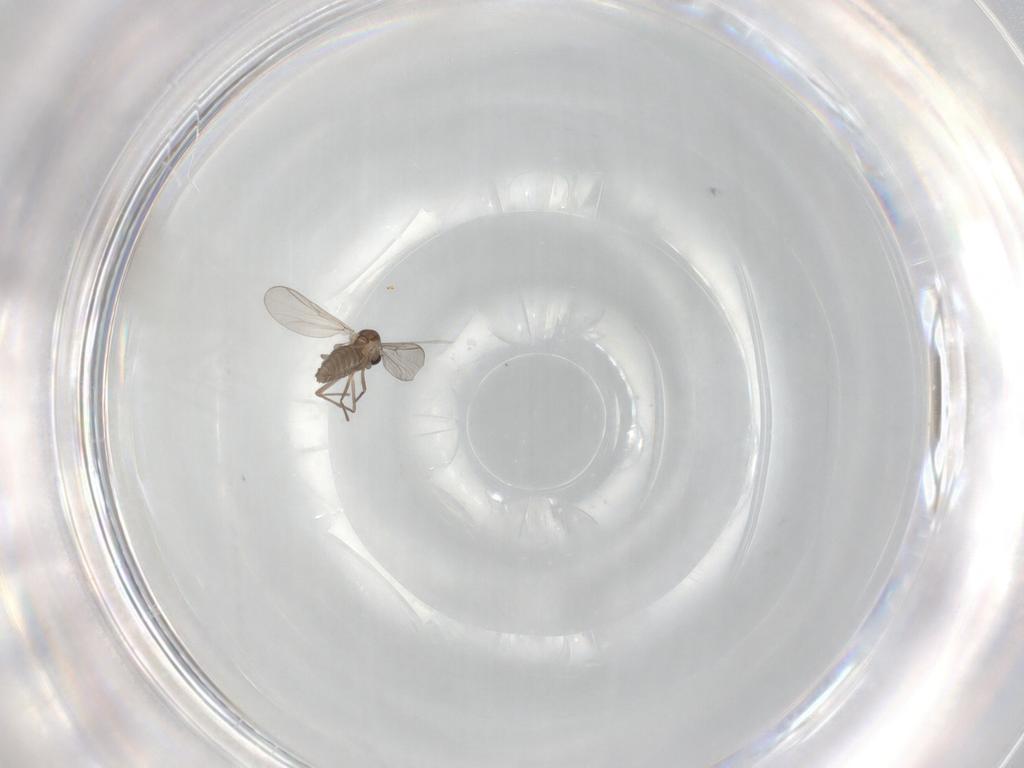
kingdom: Animalia
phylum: Arthropoda
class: Insecta
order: Diptera
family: Chironomidae
